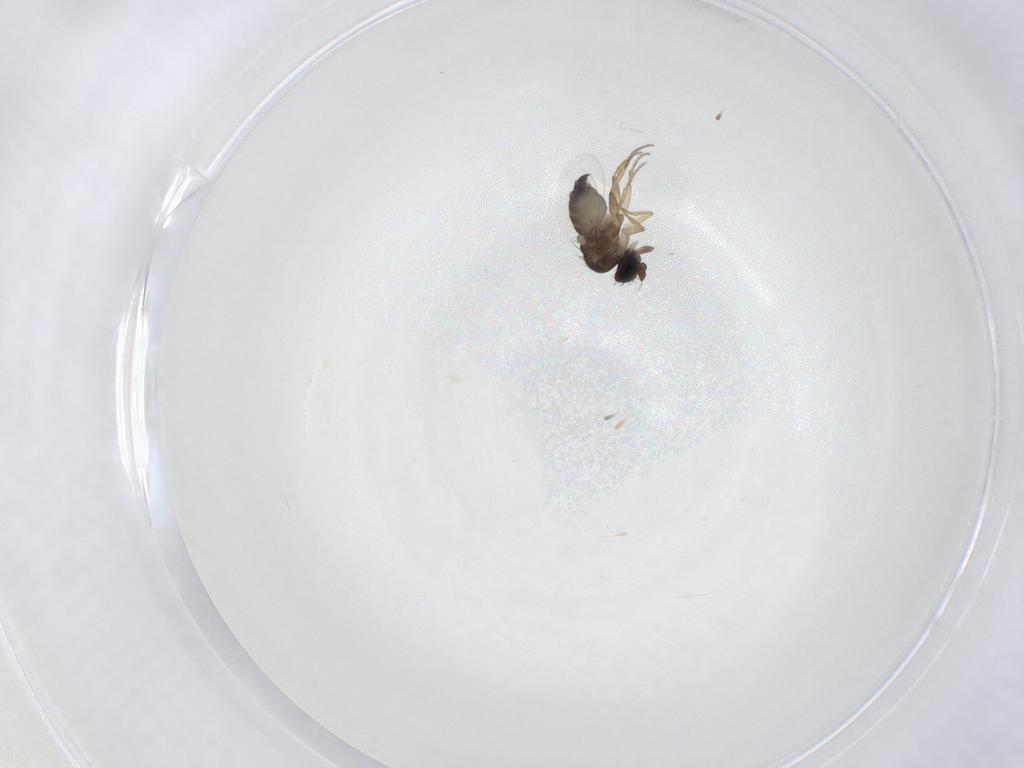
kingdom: Animalia
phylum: Arthropoda
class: Insecta
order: Diptera
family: Phoridae
